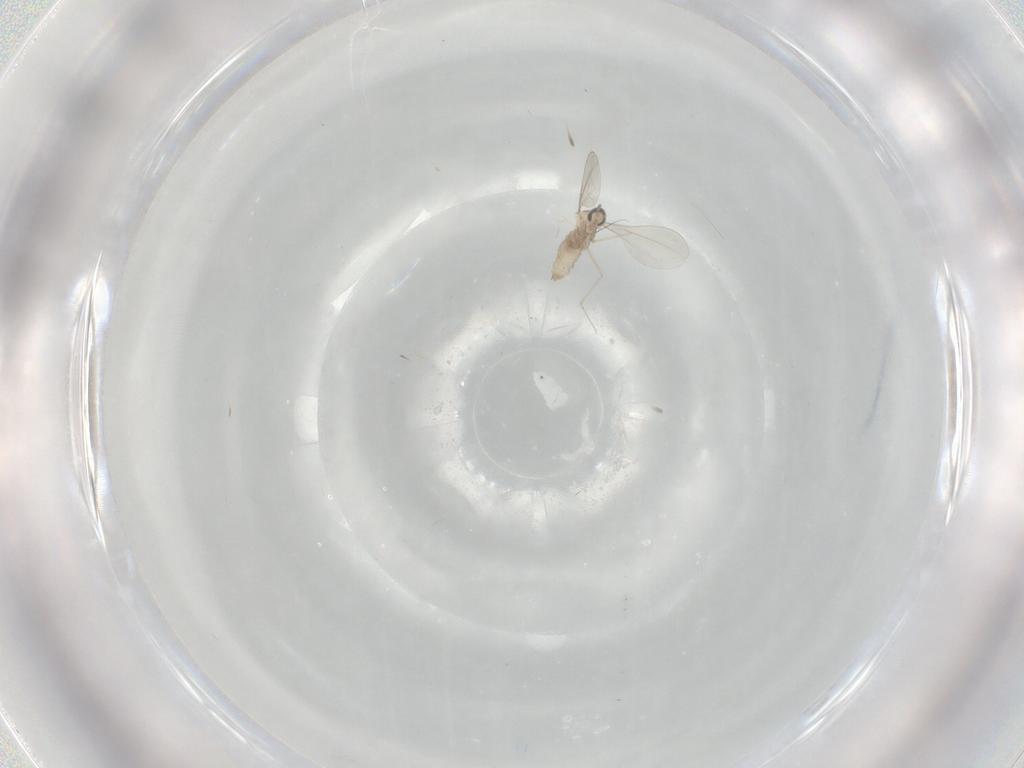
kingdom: Animalia
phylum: Arthropoda
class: Insecta
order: Diptera
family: Cecidomyiidae
